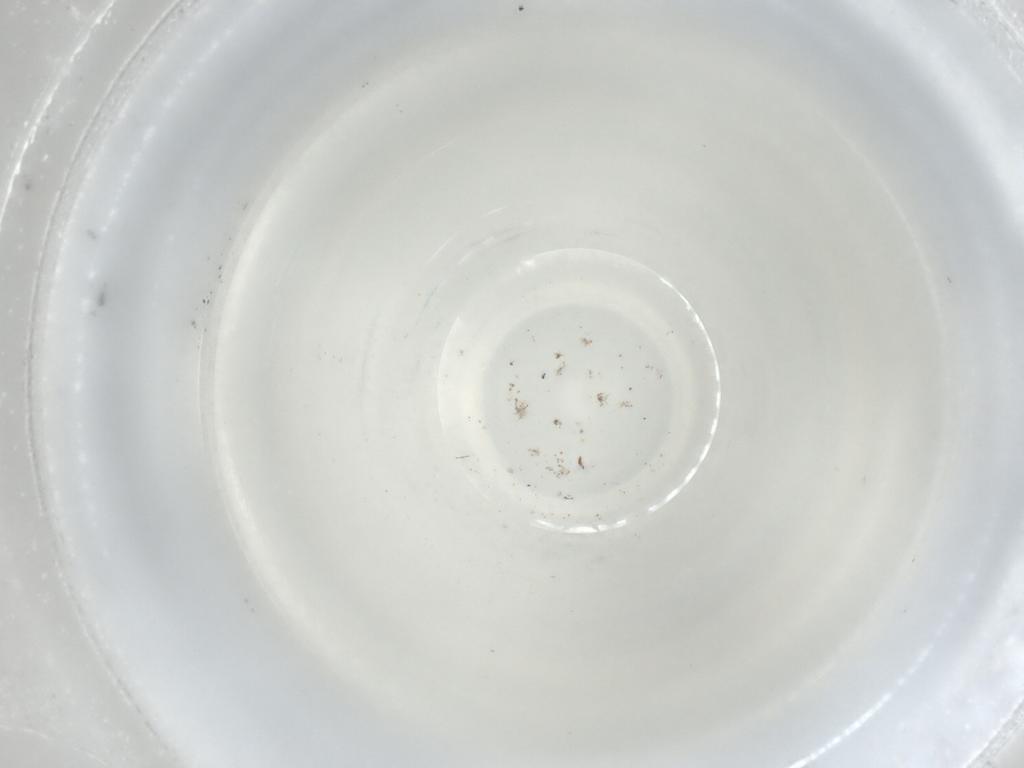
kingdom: Animalia
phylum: Arthropoda
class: Insecta
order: Hymenoptera
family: Formicidae
